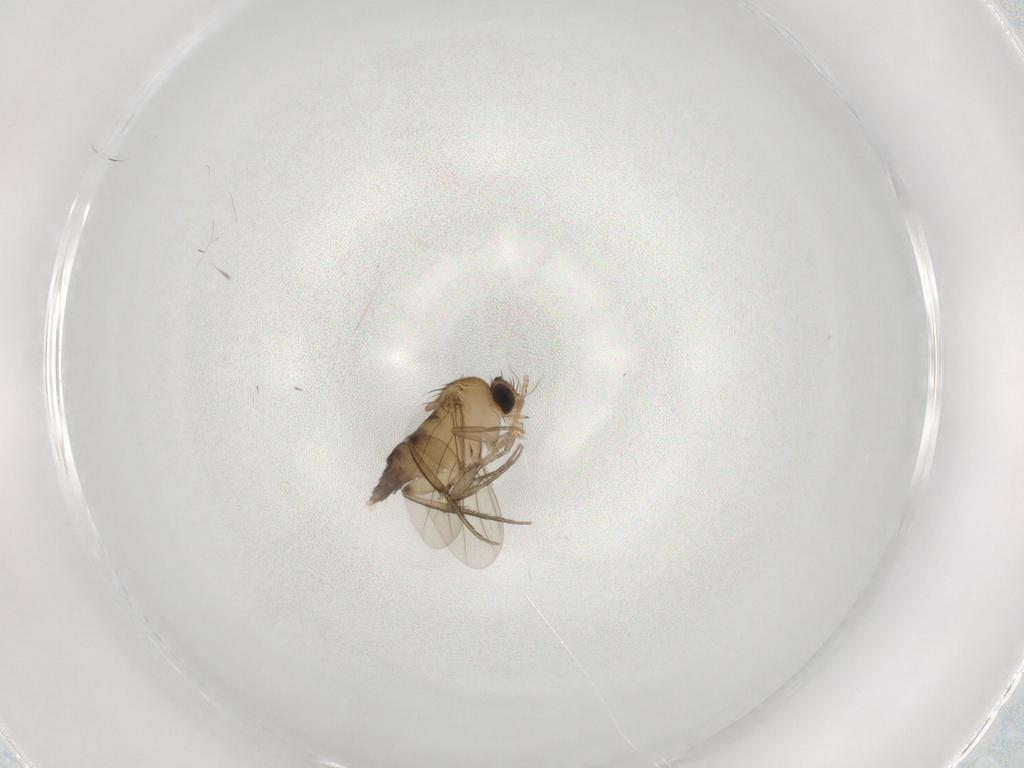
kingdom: Animalia
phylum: Arthropoda
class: Insecta
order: Diptera
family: Phoridae
